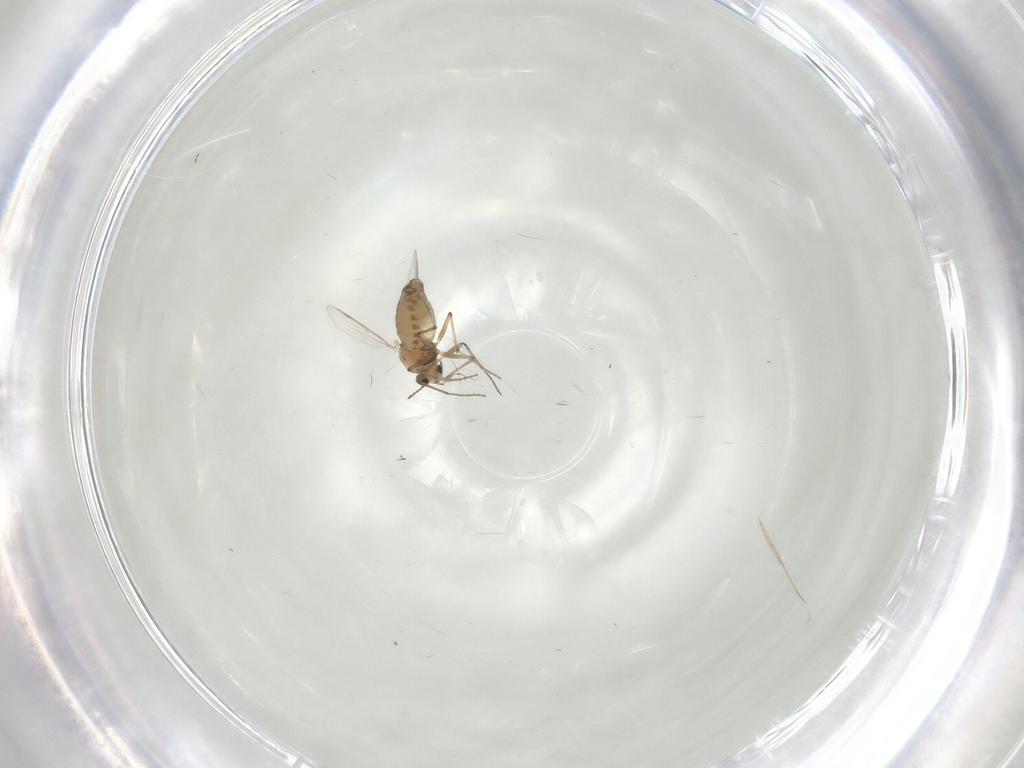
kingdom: Animalia
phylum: Arthropoda
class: Insecta
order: Diptera
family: Chironomidae
